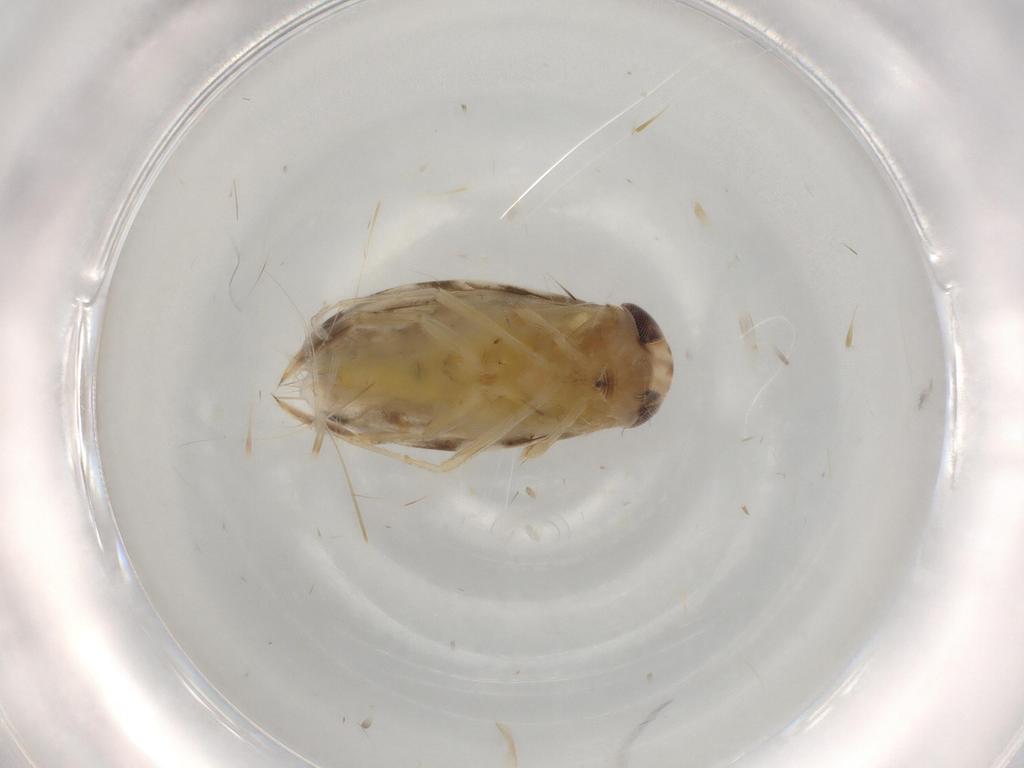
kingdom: Animalia
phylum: Arthropoda
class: Insecta
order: Hemiptera
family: Corixidae
